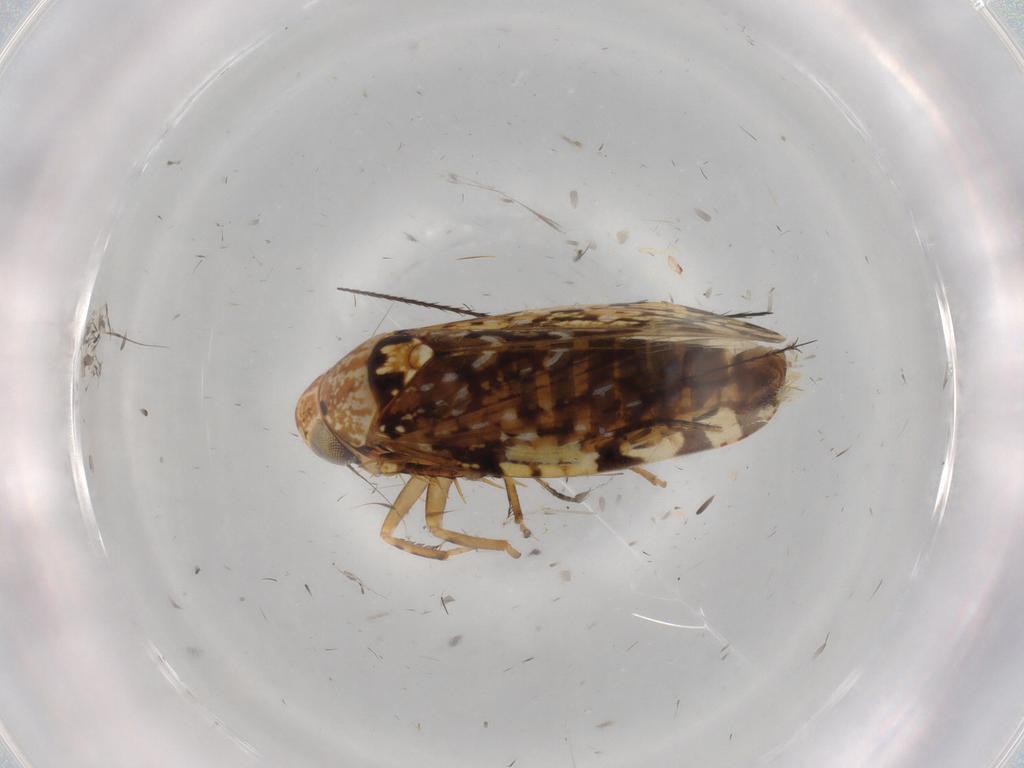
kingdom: Animalia
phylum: Arthropoda
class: Insecta
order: Hemiptera
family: Cicadellidae
